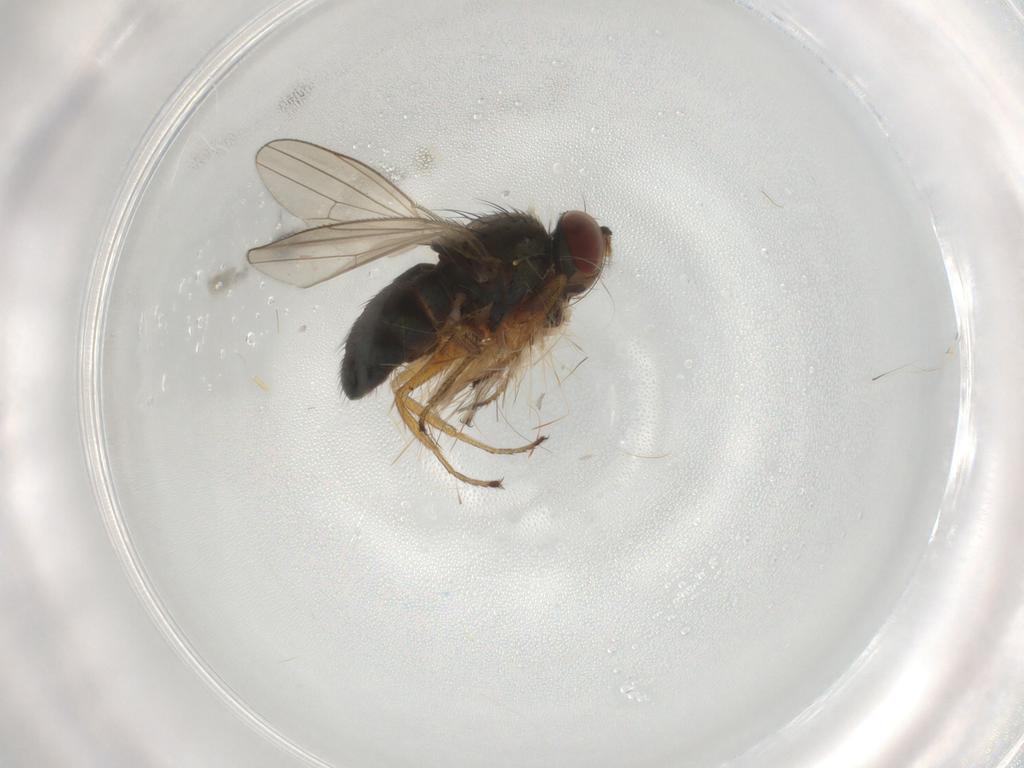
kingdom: Animalia
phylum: Arthropoda
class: Insecta
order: Diptera
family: Ephydridae
